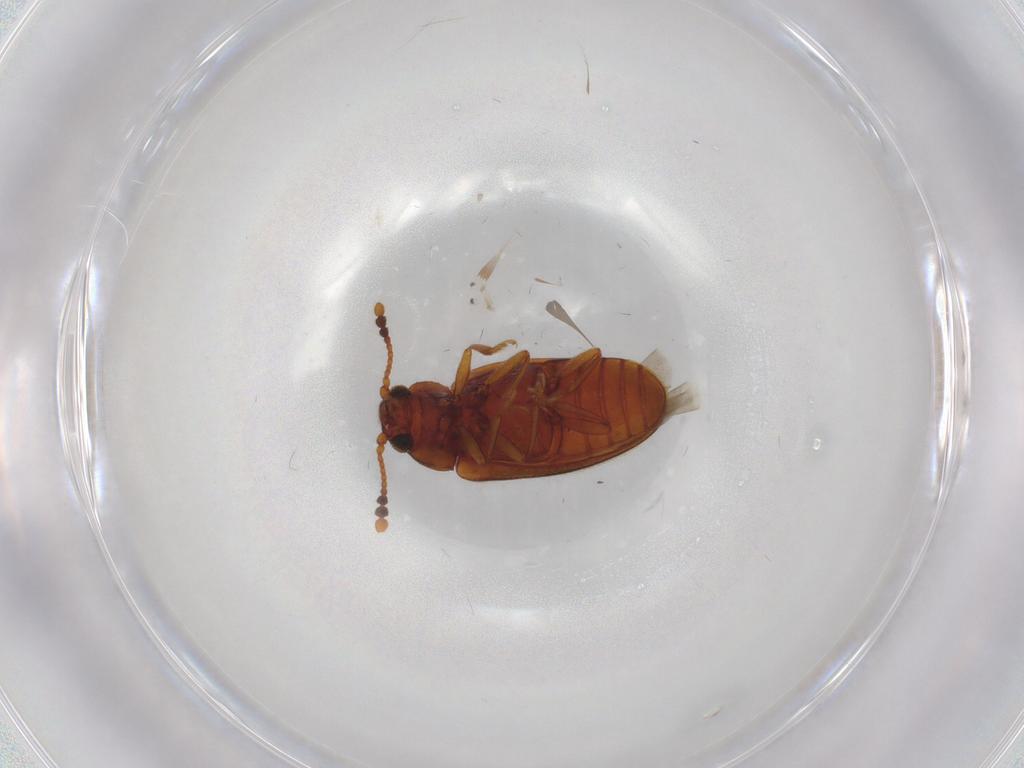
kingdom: Animalia
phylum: Arthropoda
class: Insecta
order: Coleoptera
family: Erotylidae
